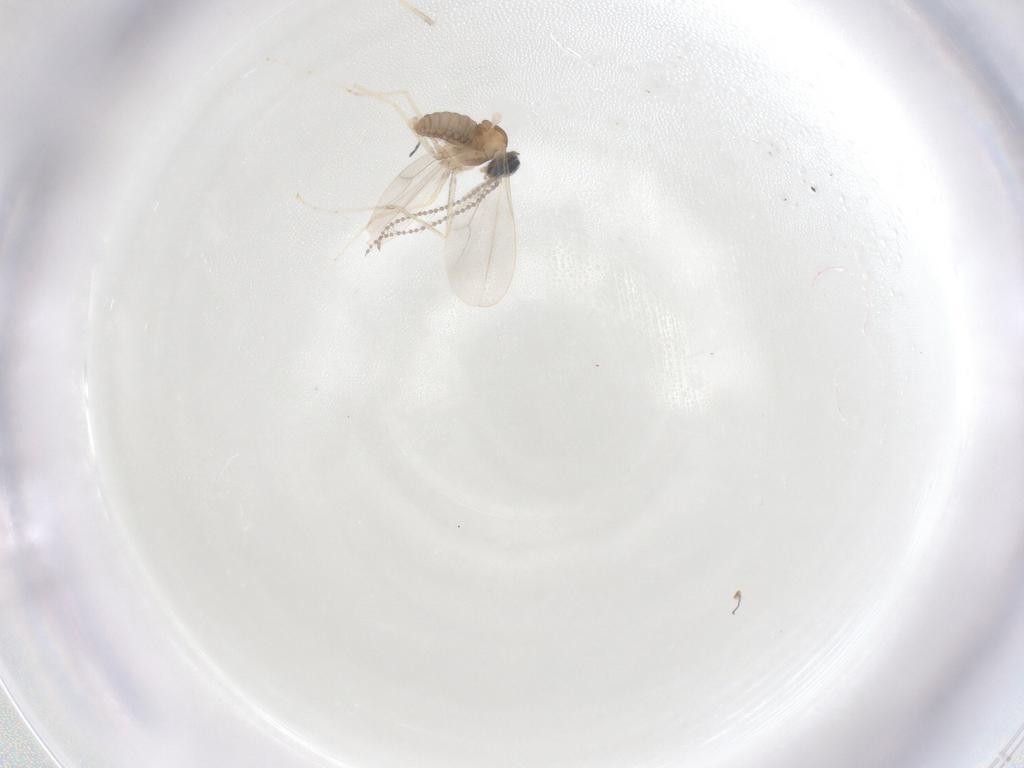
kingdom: Animalia
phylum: Arthropoda
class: Insecta
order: Diptera
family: Cecidomyiidae
